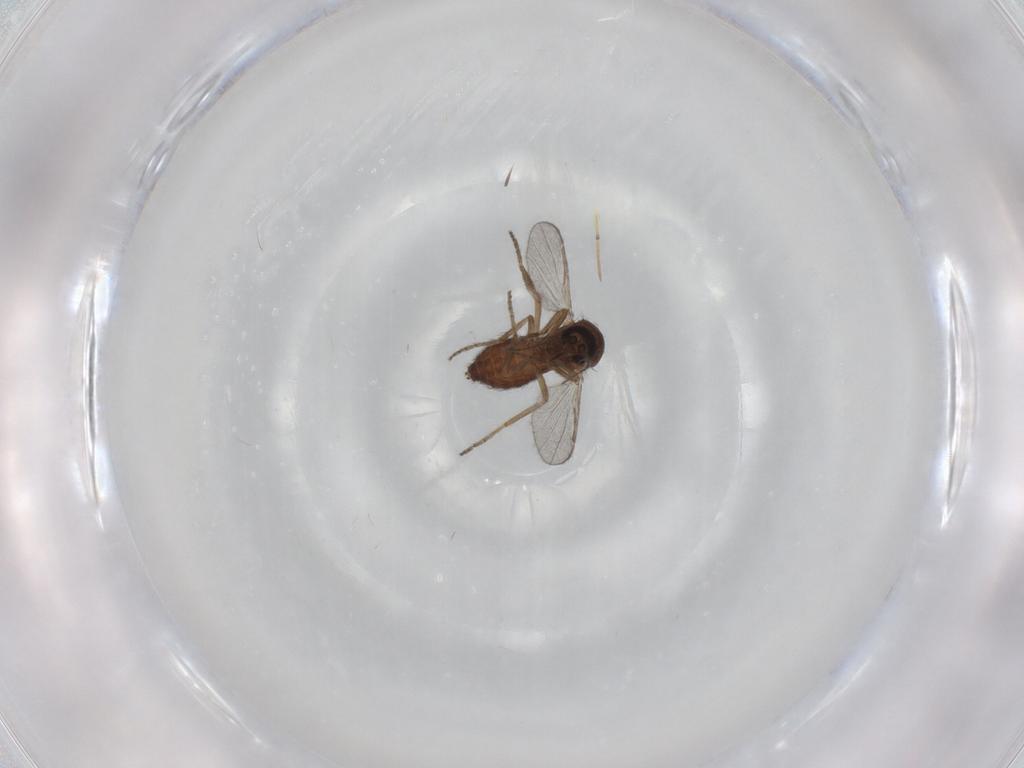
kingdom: Animalia
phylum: Arthropoda
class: Insecta
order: Diptera
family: Ceratopogonidae
